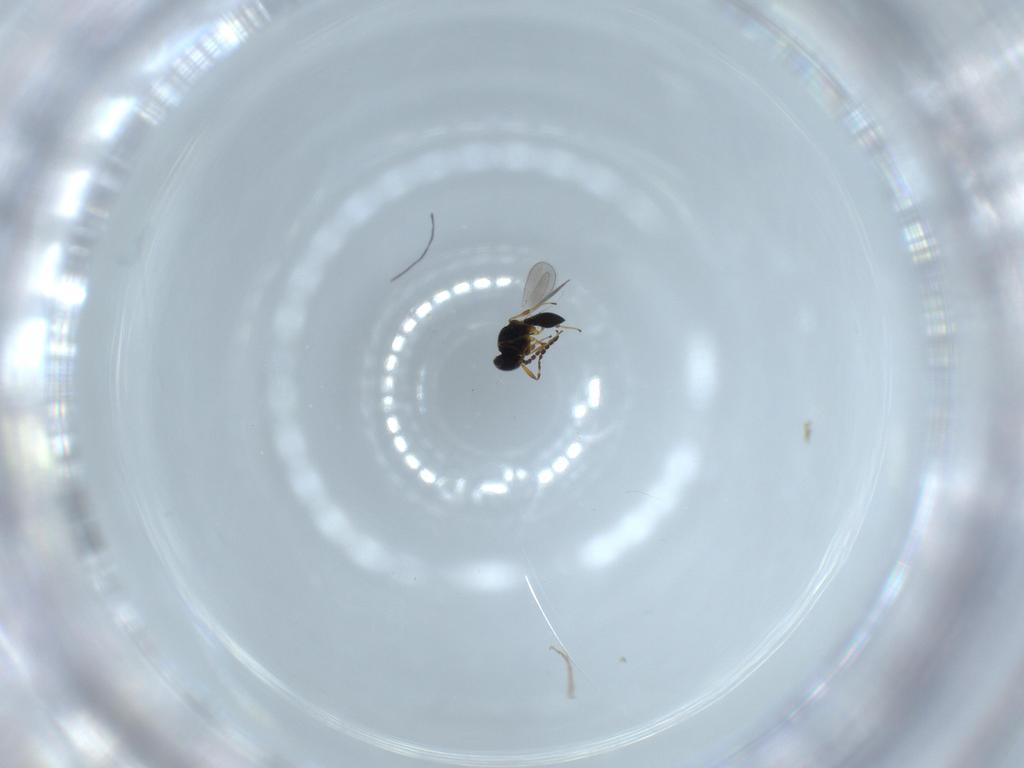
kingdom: Animalia
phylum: Arthropoda
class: Insecta
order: Hymenoptera
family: Platygastridae
